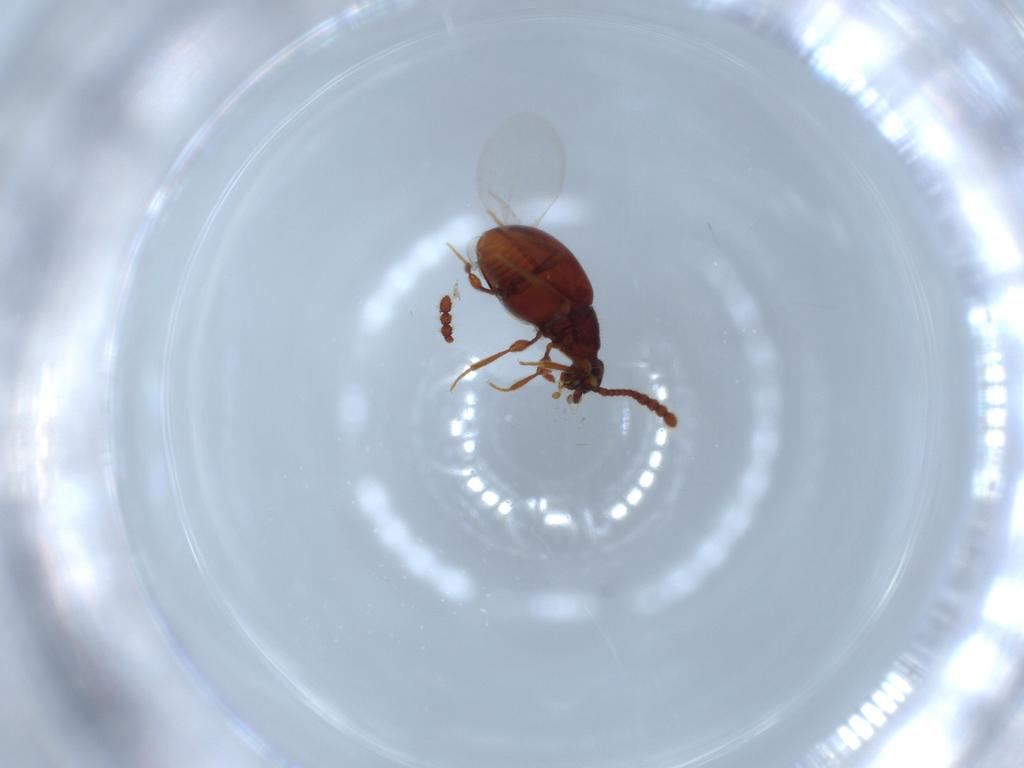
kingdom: Animalia
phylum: Arthropoda
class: Insecta
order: Coleoptera
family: Staphylinidae
